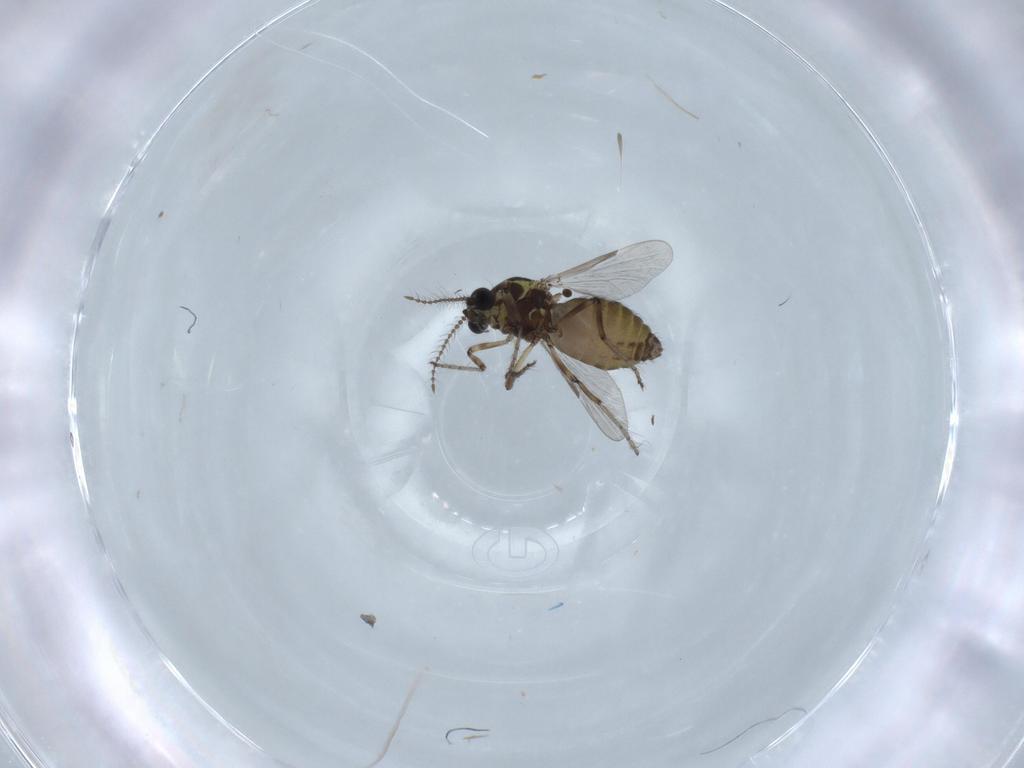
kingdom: Animalia
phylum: Arthropoda
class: Insecta
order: Diptera
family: Ceratopogonidae
